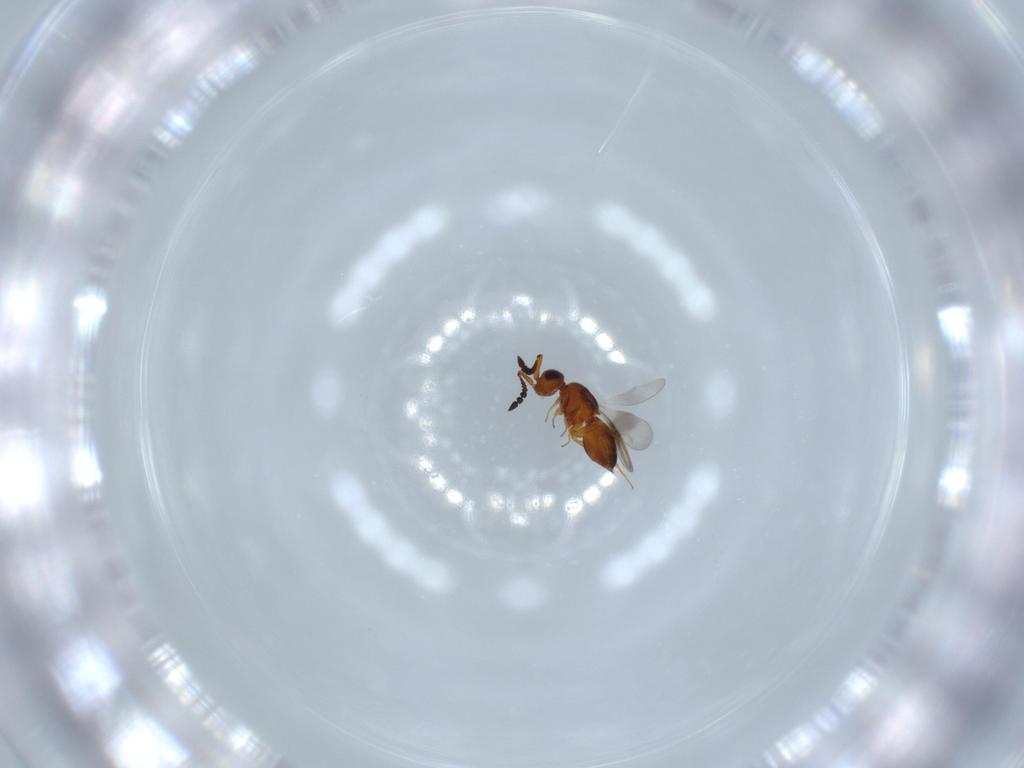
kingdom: Animalia
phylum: Arthropoda
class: Insecta
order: Hymenoptera
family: Ceraphronidae
